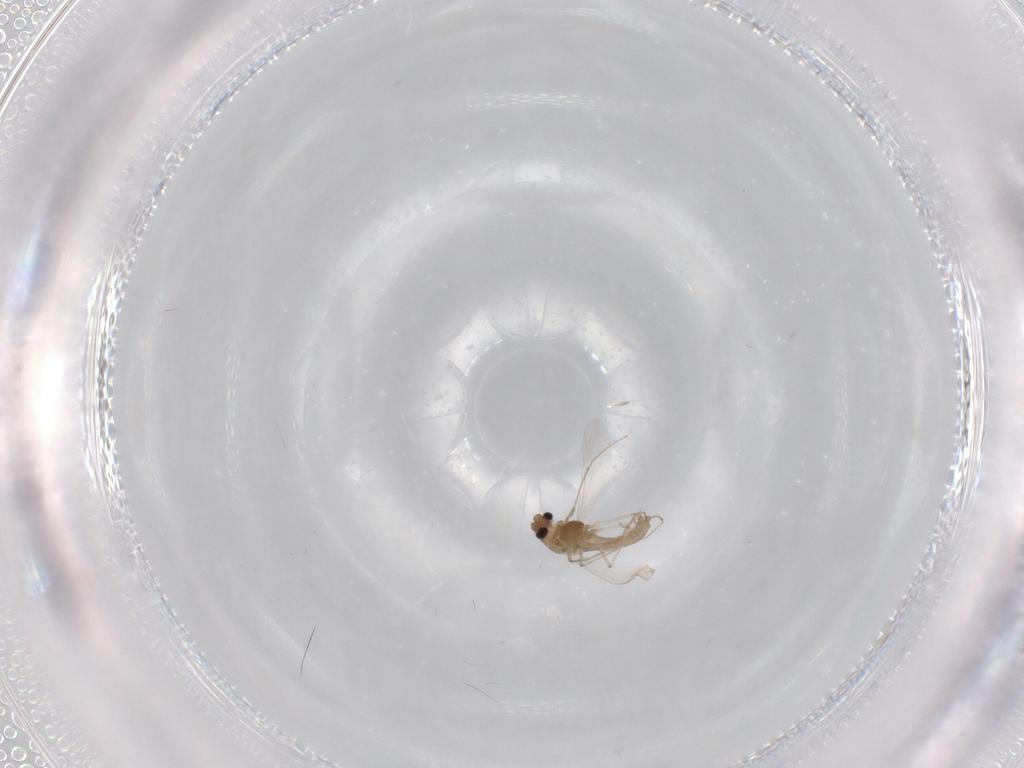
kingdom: Animalia
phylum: Arthropoda
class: Insecta
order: Diptera
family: Chironomidae
